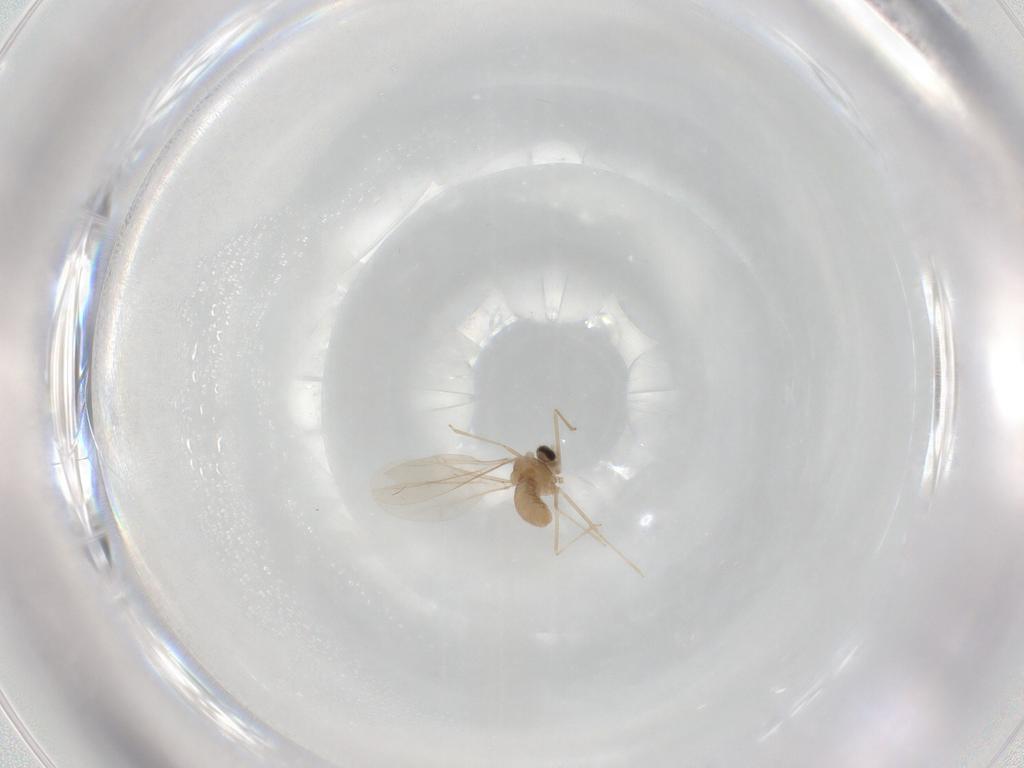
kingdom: Animalia
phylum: Arthropoda
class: Insecta
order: Diptera
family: Cecidomyiidae
